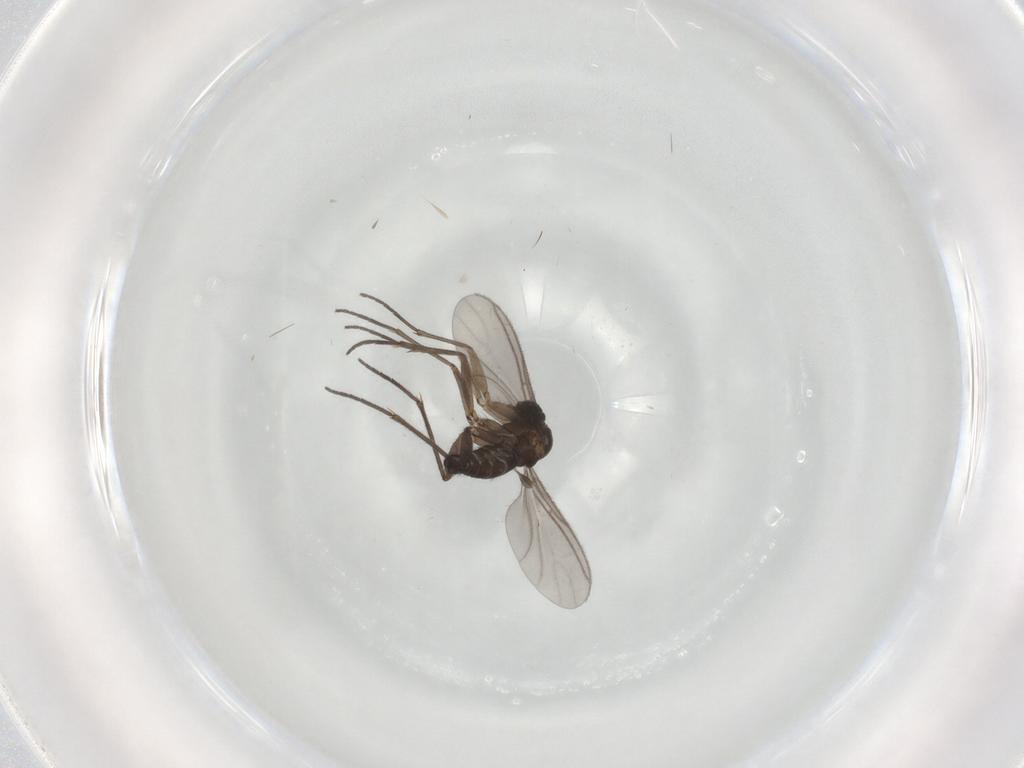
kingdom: Animalia
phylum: Arthropoda
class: Insecta
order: Diptera
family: Sciaridae
